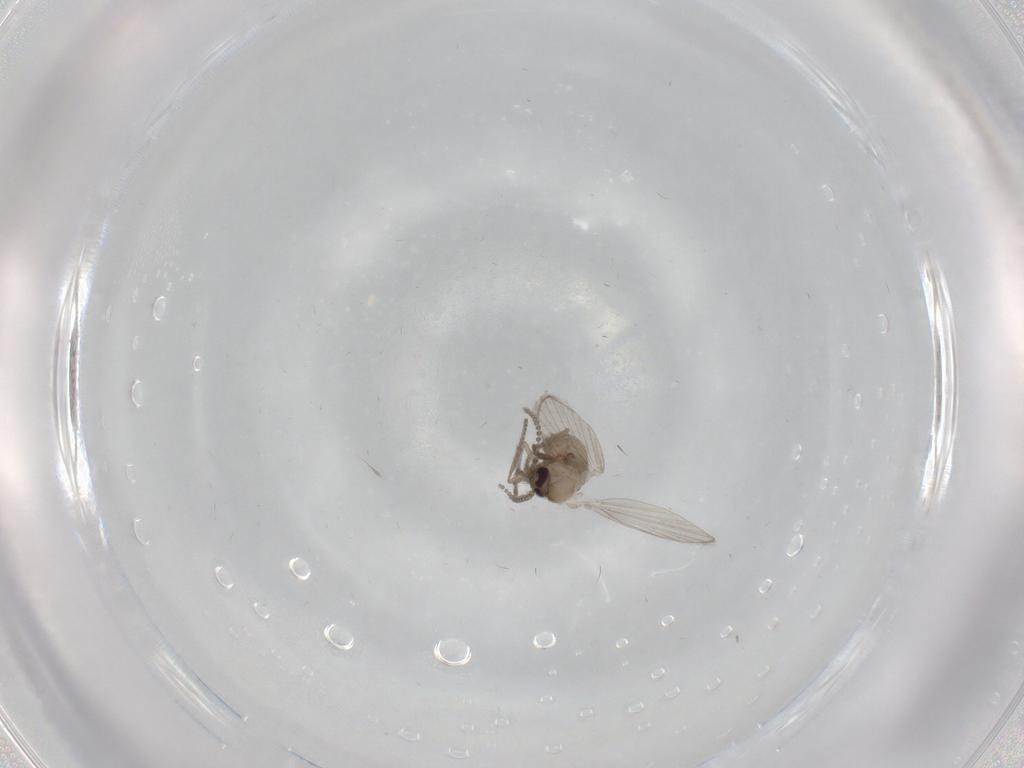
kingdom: Animalia
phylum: Arthropoda
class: Insecta
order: Diptera
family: Psychodidae
